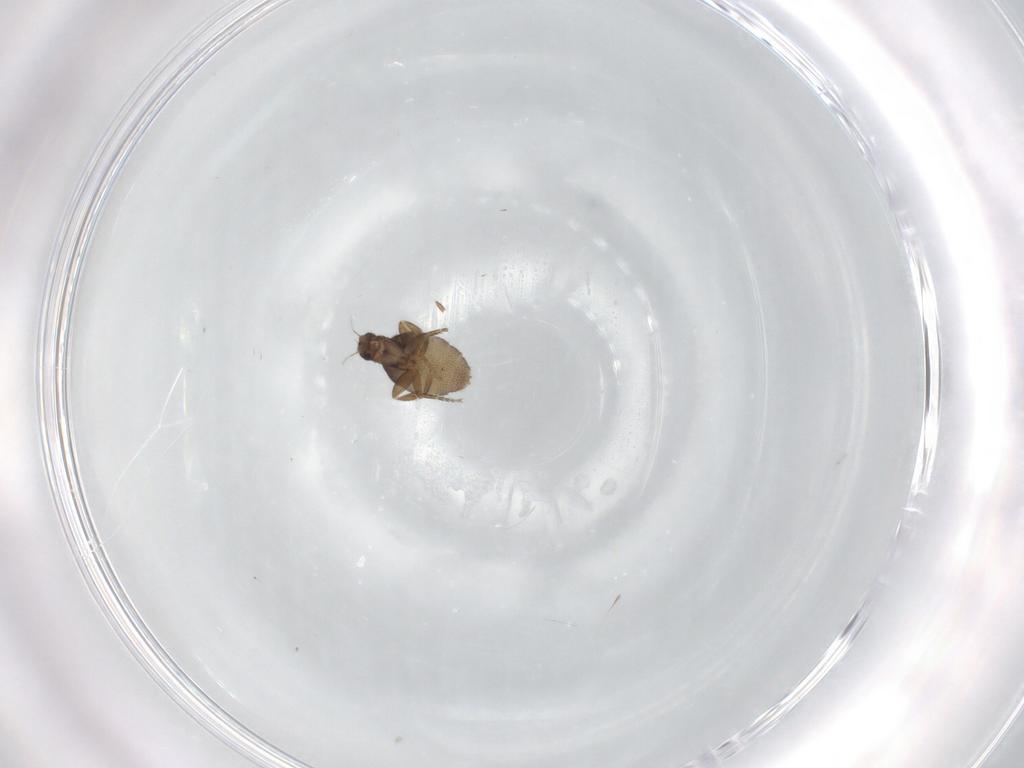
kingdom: Animalia
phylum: Arthropoda
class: Insecta
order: Diptera
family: Phoridae
